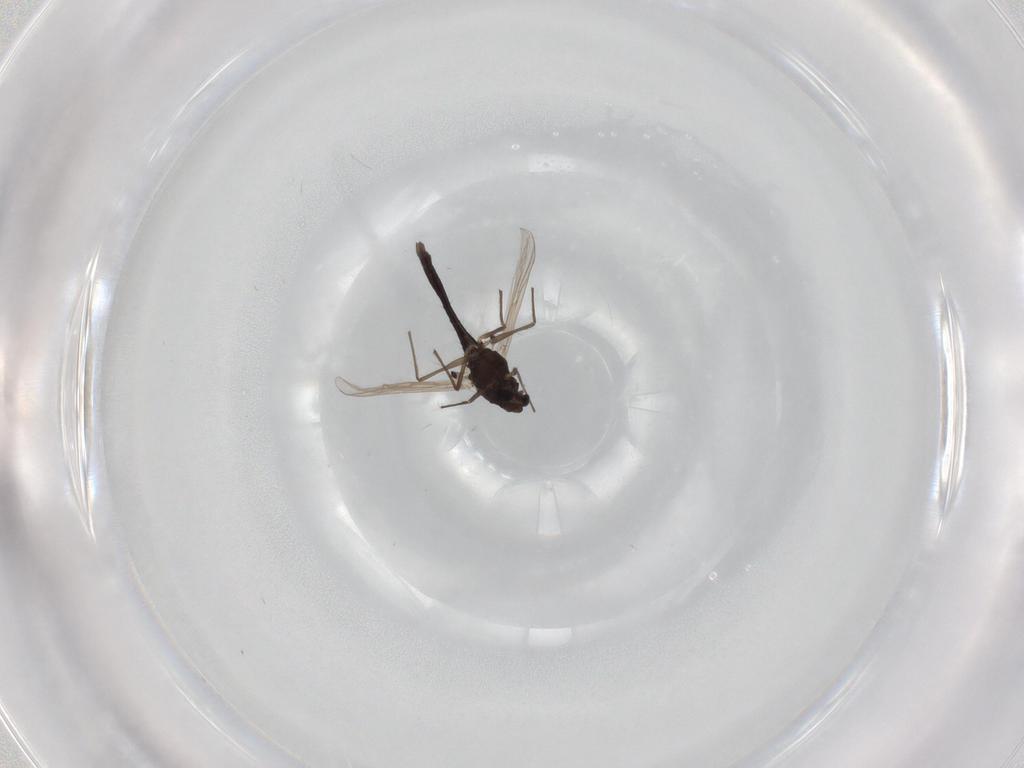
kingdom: Animalia
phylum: Arthropoda
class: Insecta
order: Diptera
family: Chironomidae
